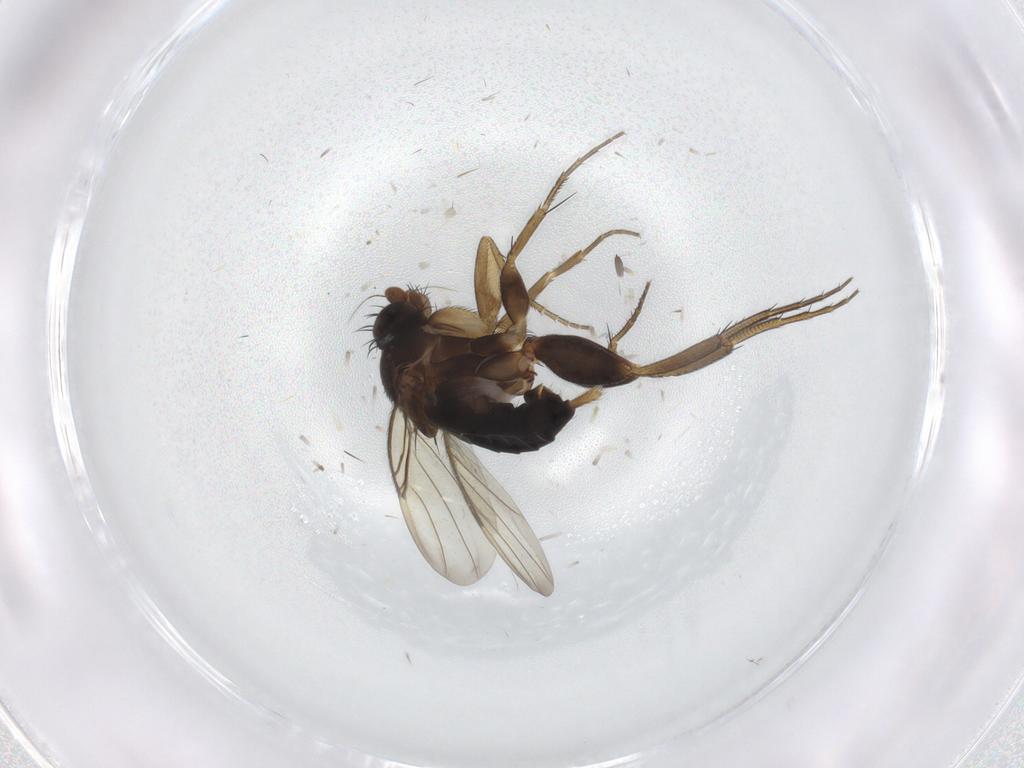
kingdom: Animalia
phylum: Arthropoda
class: Insecta
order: Diptera
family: Phoridae
